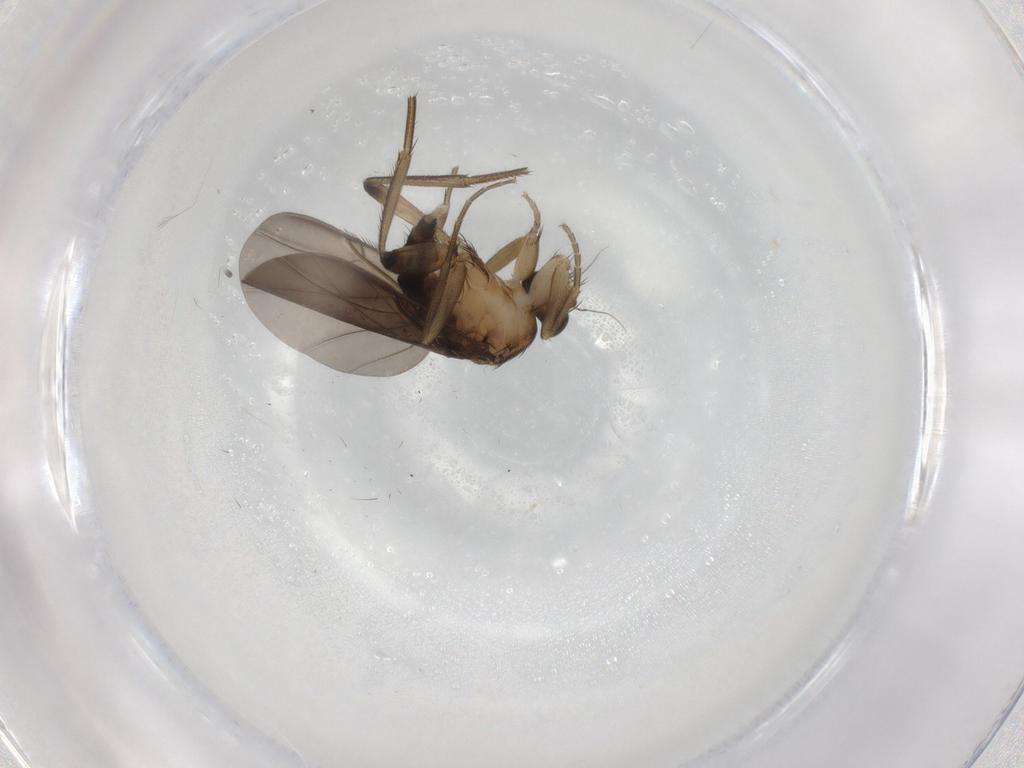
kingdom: Animalia
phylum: Arthropoda
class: Insecta
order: Diptera
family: Phoridae
